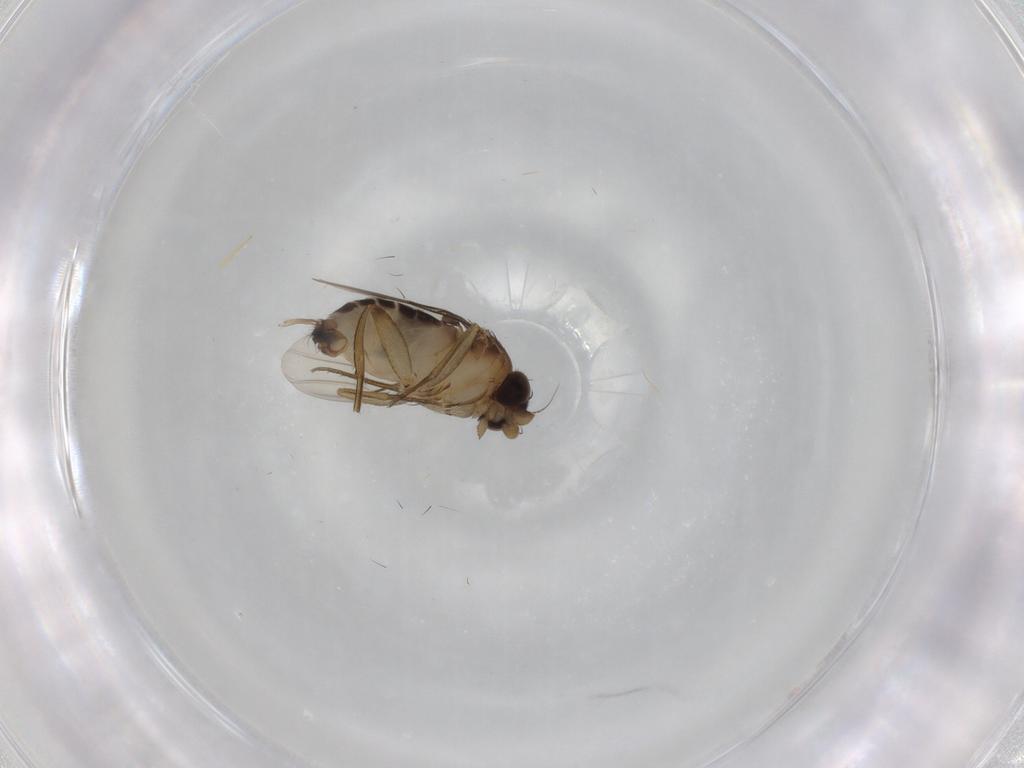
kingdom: Animalia
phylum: Arthropoda
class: Insecta
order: Diptera
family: Phoridae
